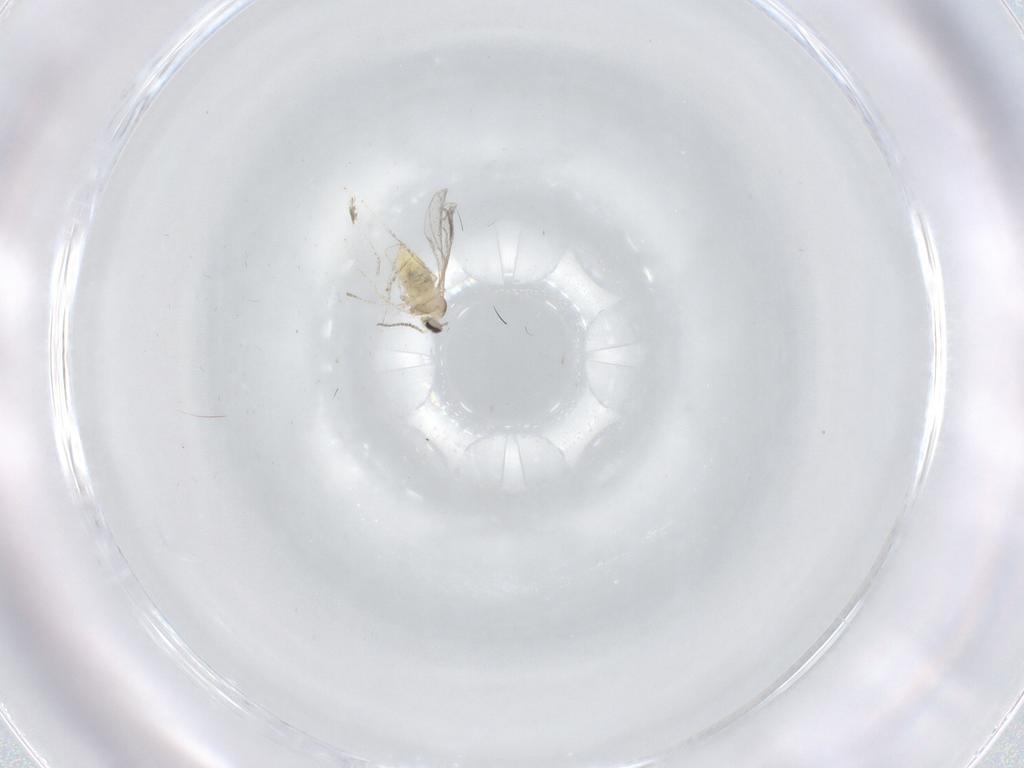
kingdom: Animalia
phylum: Arthropoda
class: Insecta
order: Diptera
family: Cecidomyiidae
